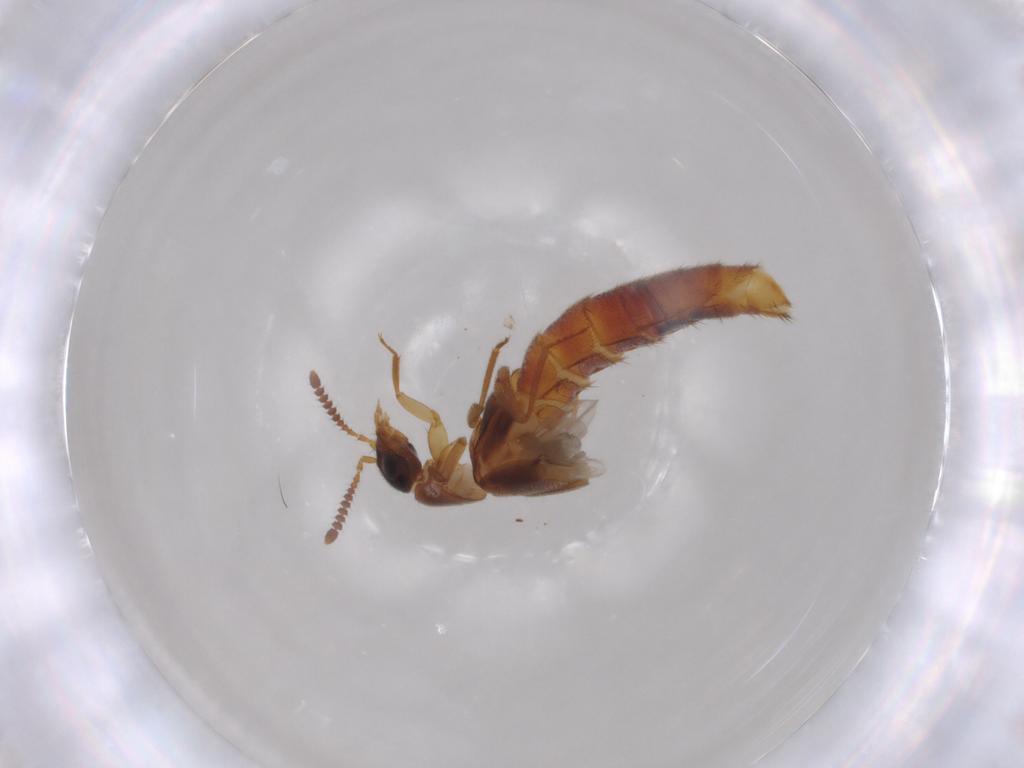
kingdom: Animalia
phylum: Arthropoda
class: Insecta
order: Coleoptera
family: Staphylinidae
